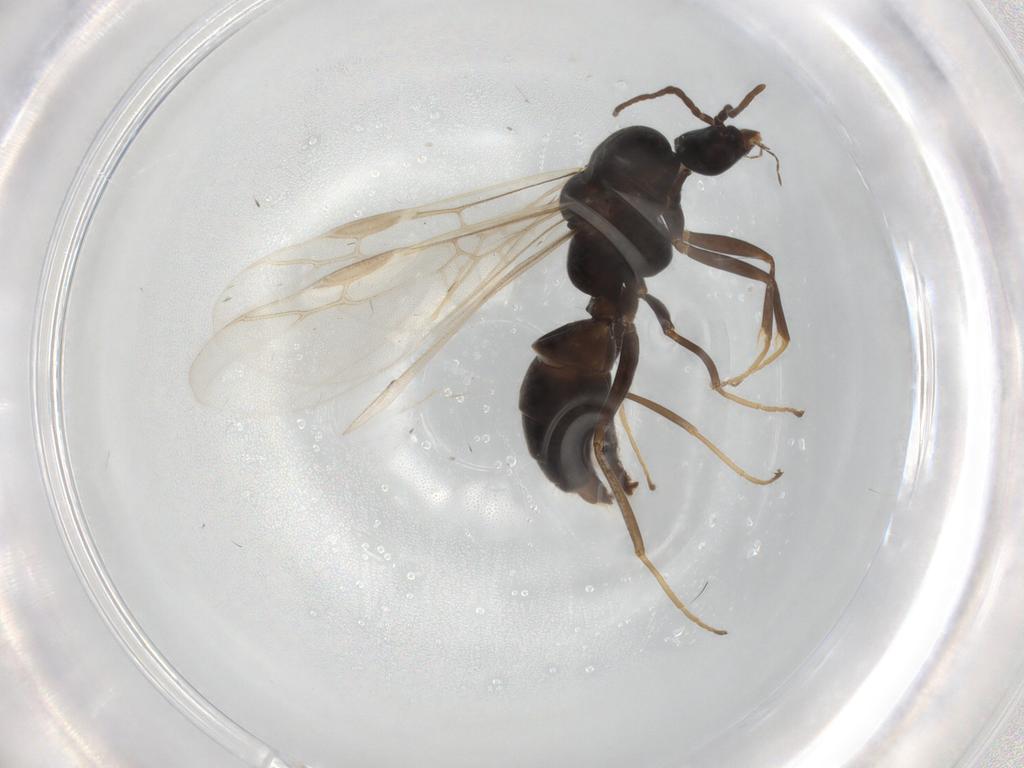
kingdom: Animalia
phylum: Arthropoda
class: Insecta
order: Hymenoptera
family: Formicidae
